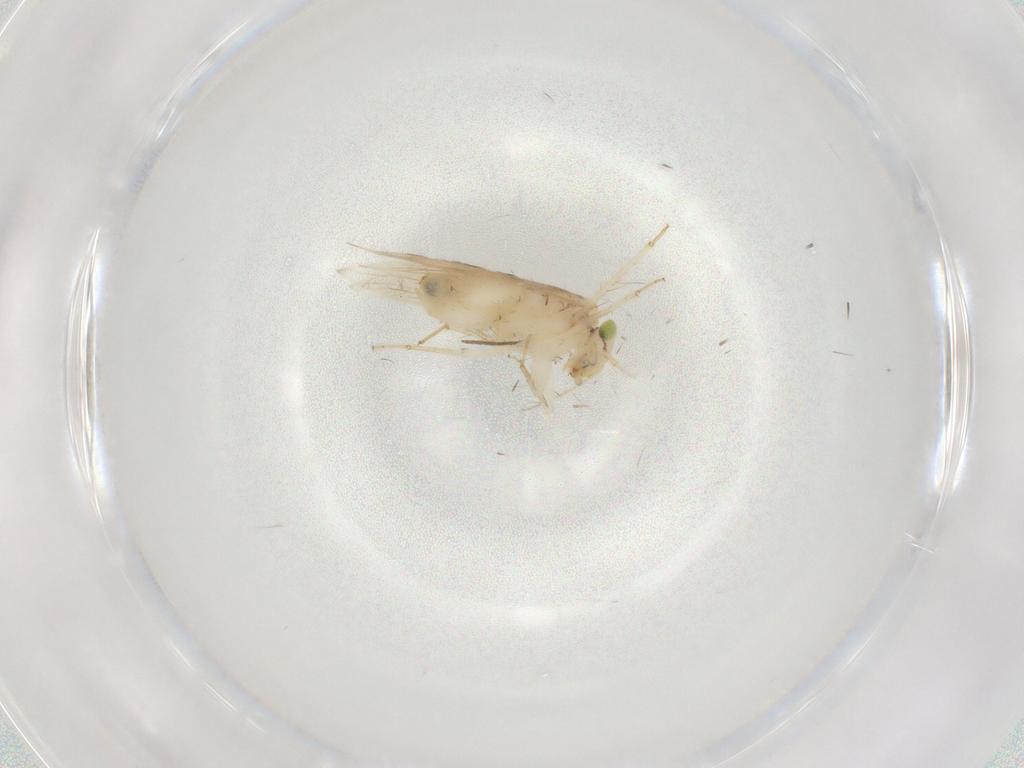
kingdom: Animalia
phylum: Arthropoda
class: Insecta
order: Psocodea
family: Lepidopsocidae
